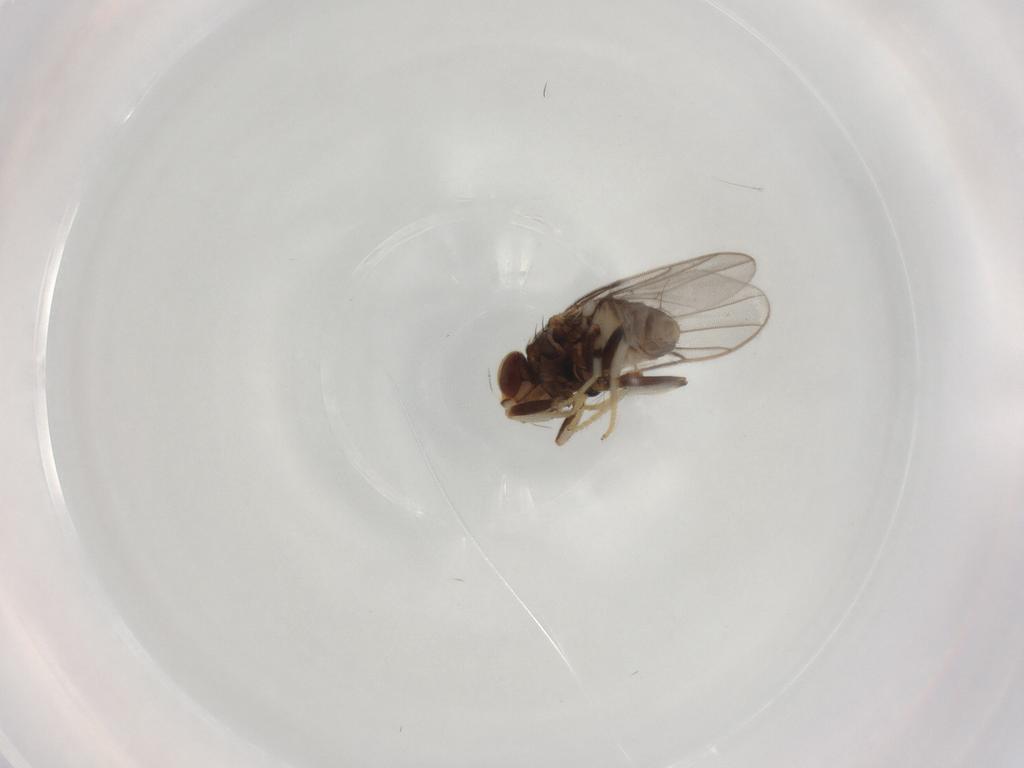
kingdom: Animalia
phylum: Arthropoda
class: Insecta
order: Diptera
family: Chloropidae
